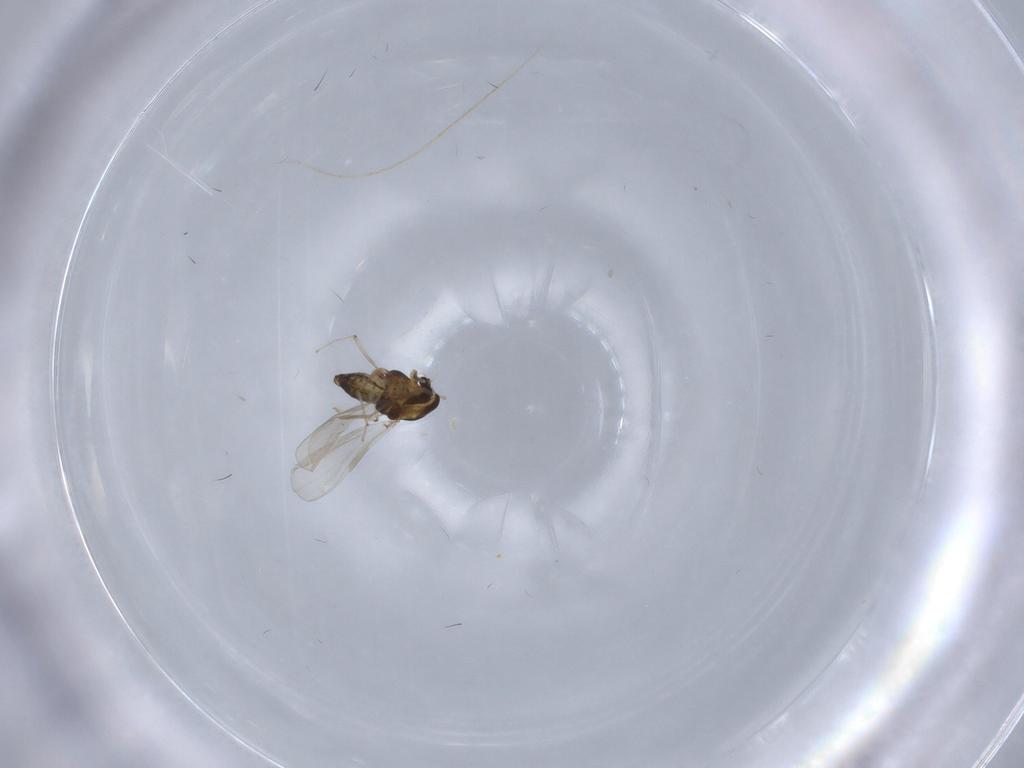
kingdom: Animalia
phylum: Arthropoda
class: Insecta
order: Diptera
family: Chironomidae
